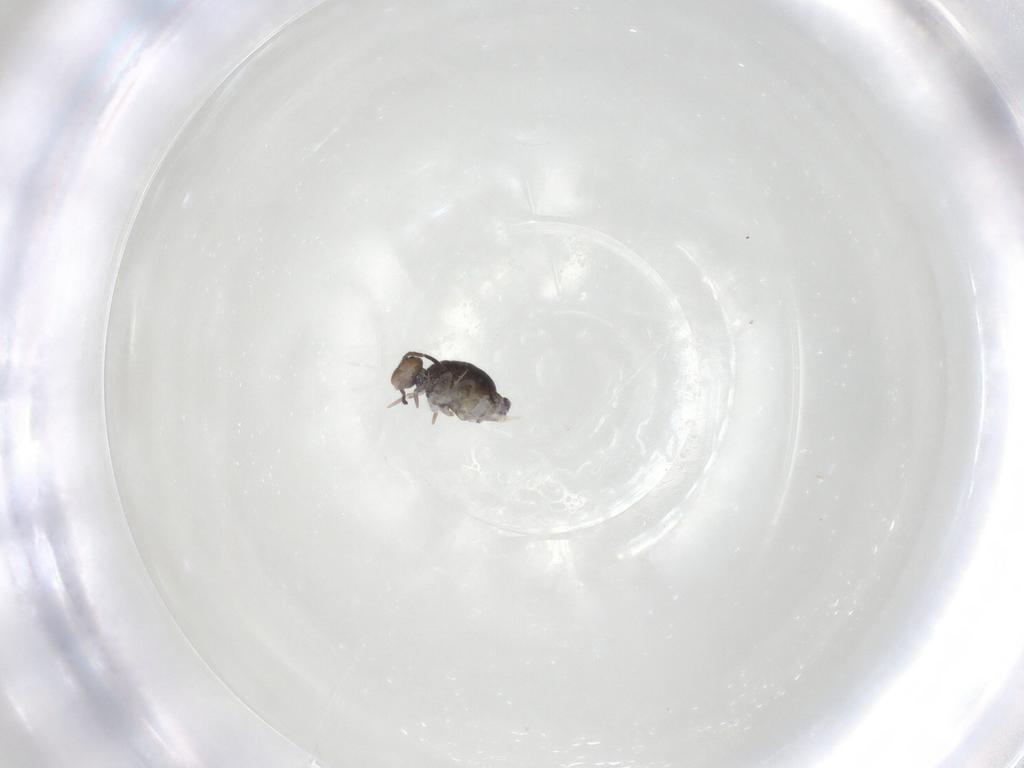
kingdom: Animalia
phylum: Arthropoda
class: Collembola
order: Symphypleona
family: Katiannidae
